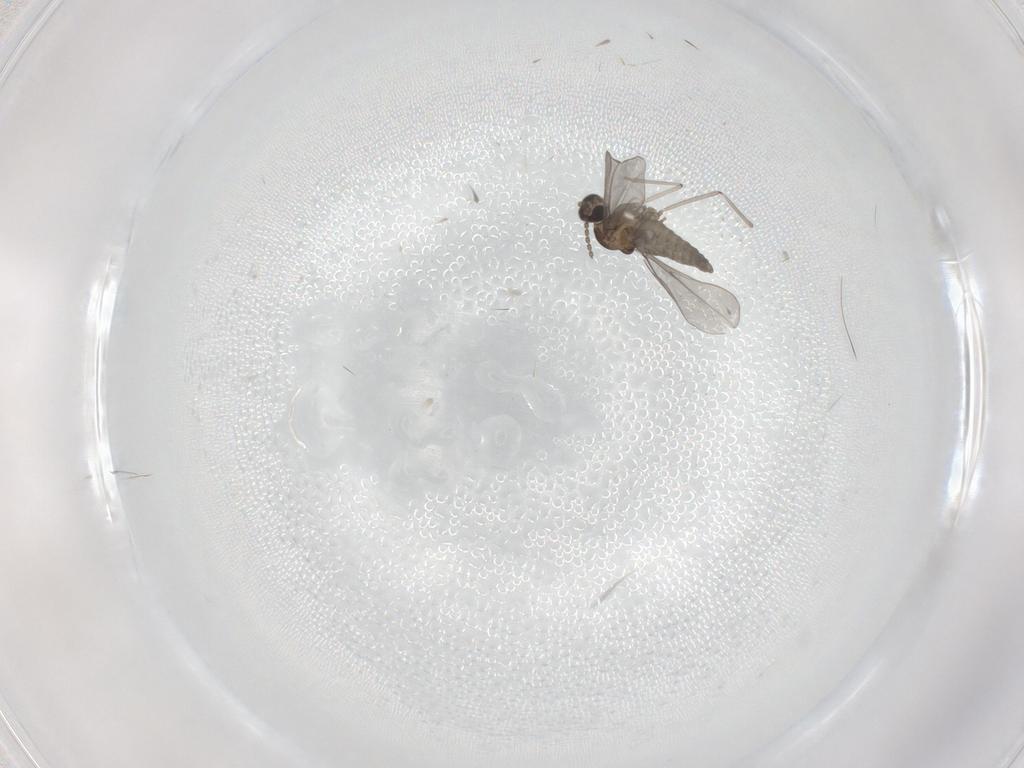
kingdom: Animalia
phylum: Arthropoda
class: Insecta
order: Diptera
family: Cecidomyiidae
